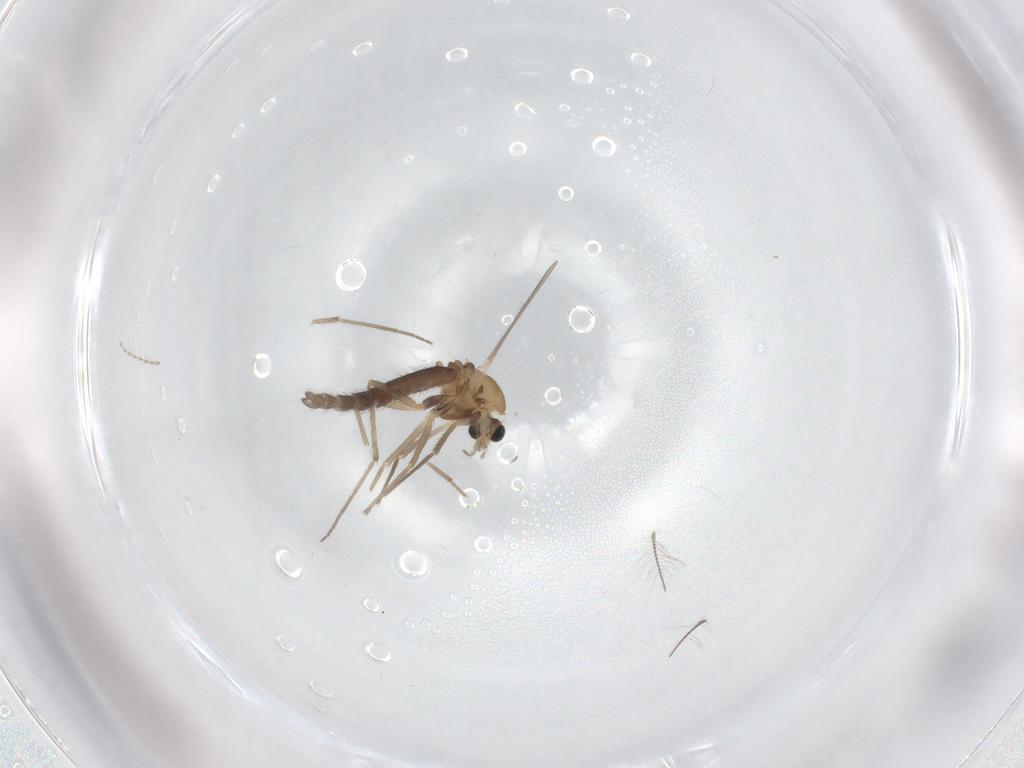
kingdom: Animalia
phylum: Arthropoda
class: Insecta
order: Diptera
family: Chironomidae
